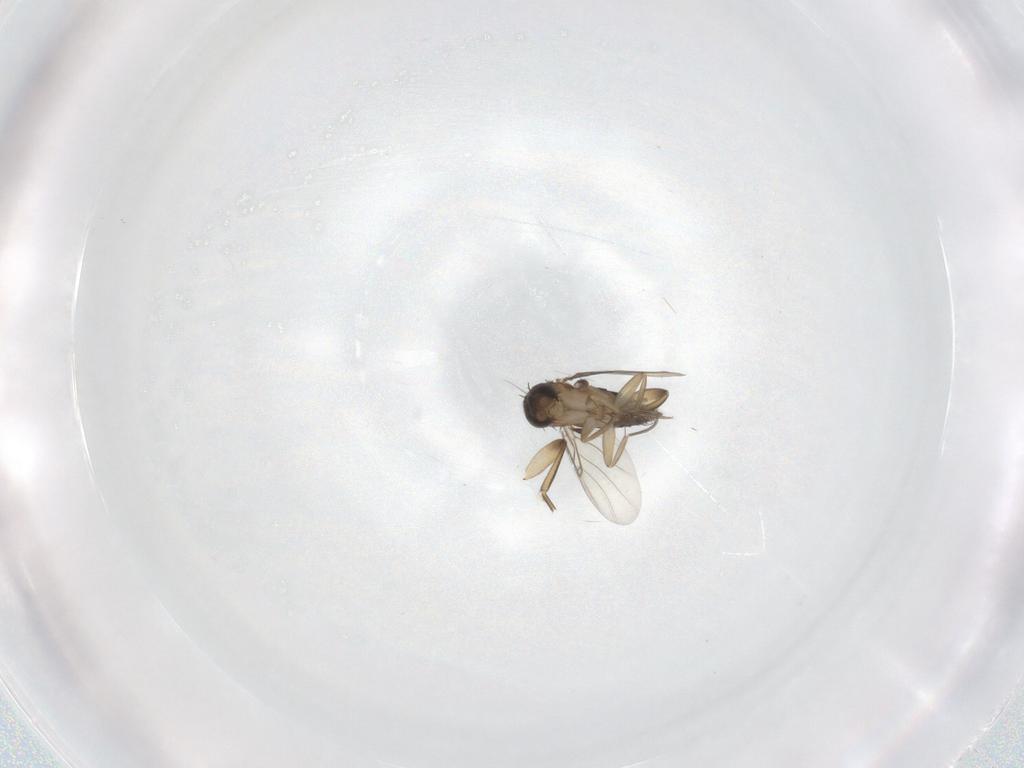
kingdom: Animalia
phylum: Arthropoda
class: Insecta
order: Diptera
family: Phoridae
